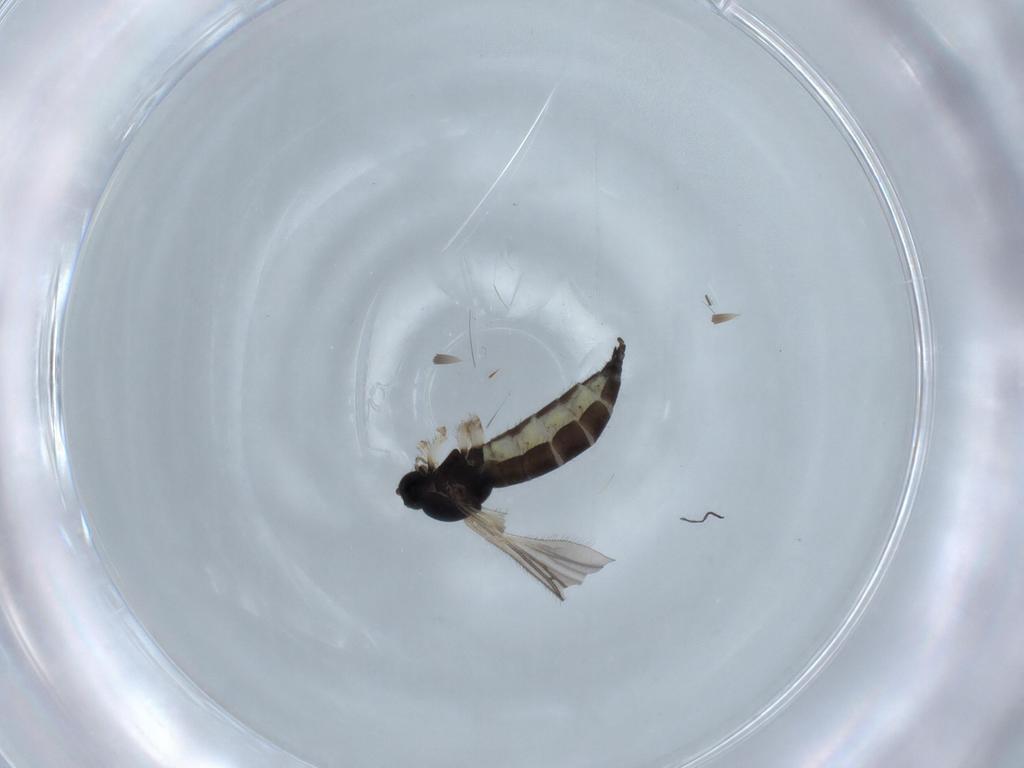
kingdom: Animalia
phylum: Arthropoda
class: Insecta
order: Diptera
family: Sciaridae
